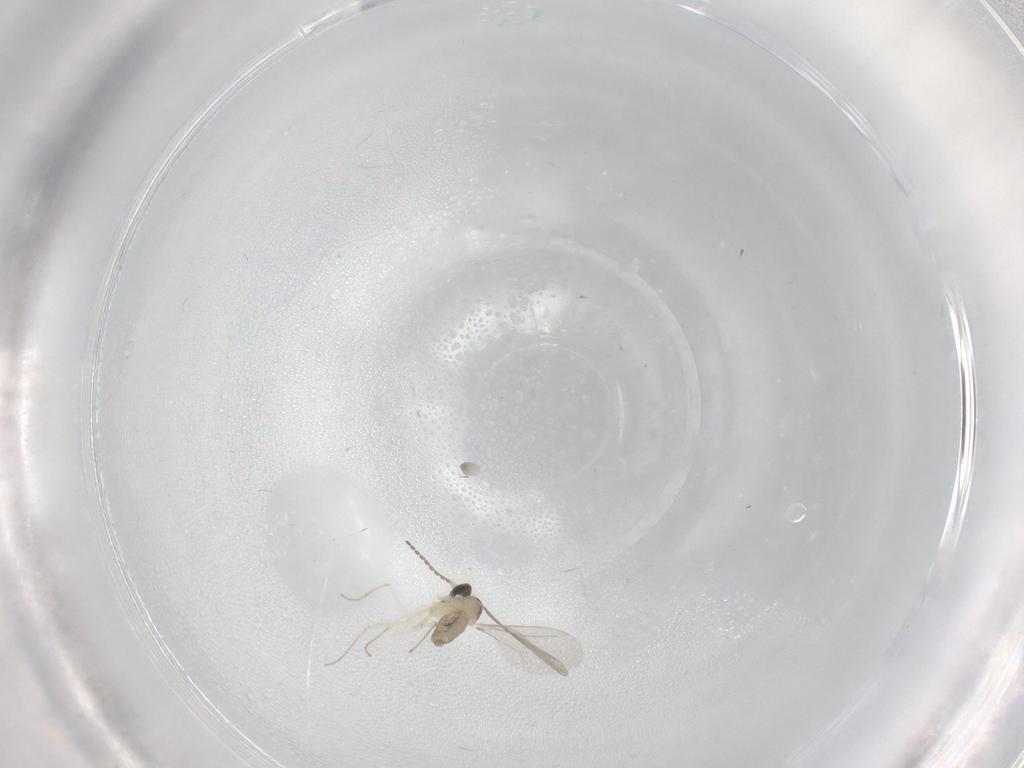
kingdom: Animalia
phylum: Arthropoda
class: Insecta
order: Diptera
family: Cecidomyiidae
